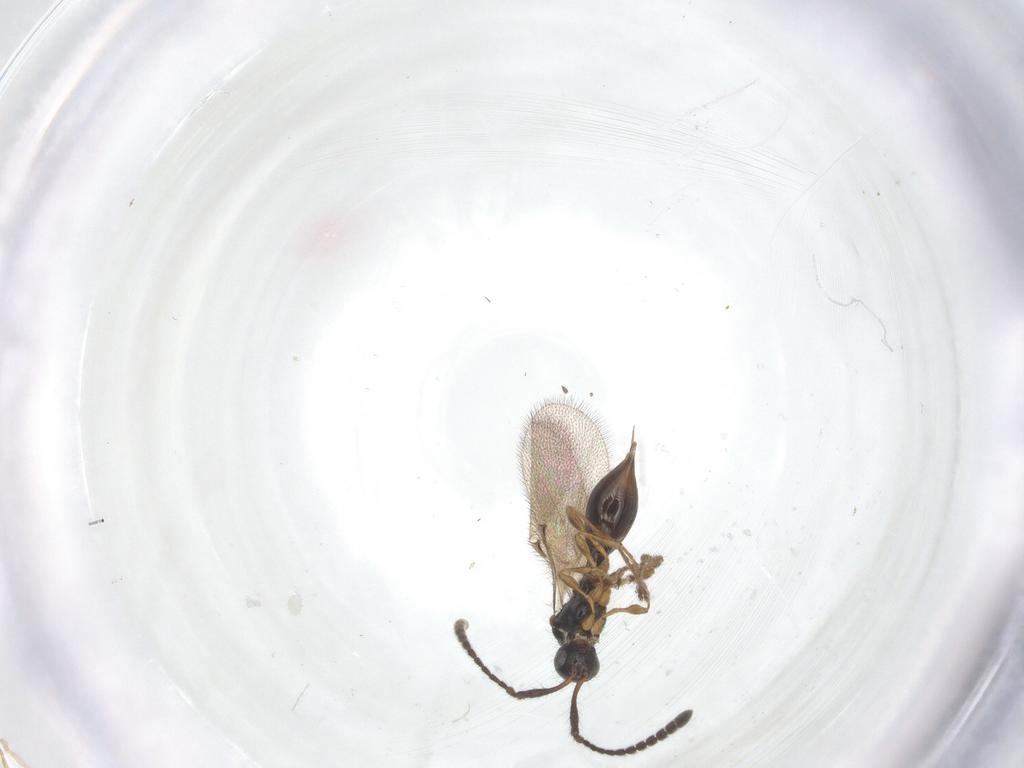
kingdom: Animalia
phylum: Arthropoda
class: Insecta
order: Hymenoptera
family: Diapriidae
